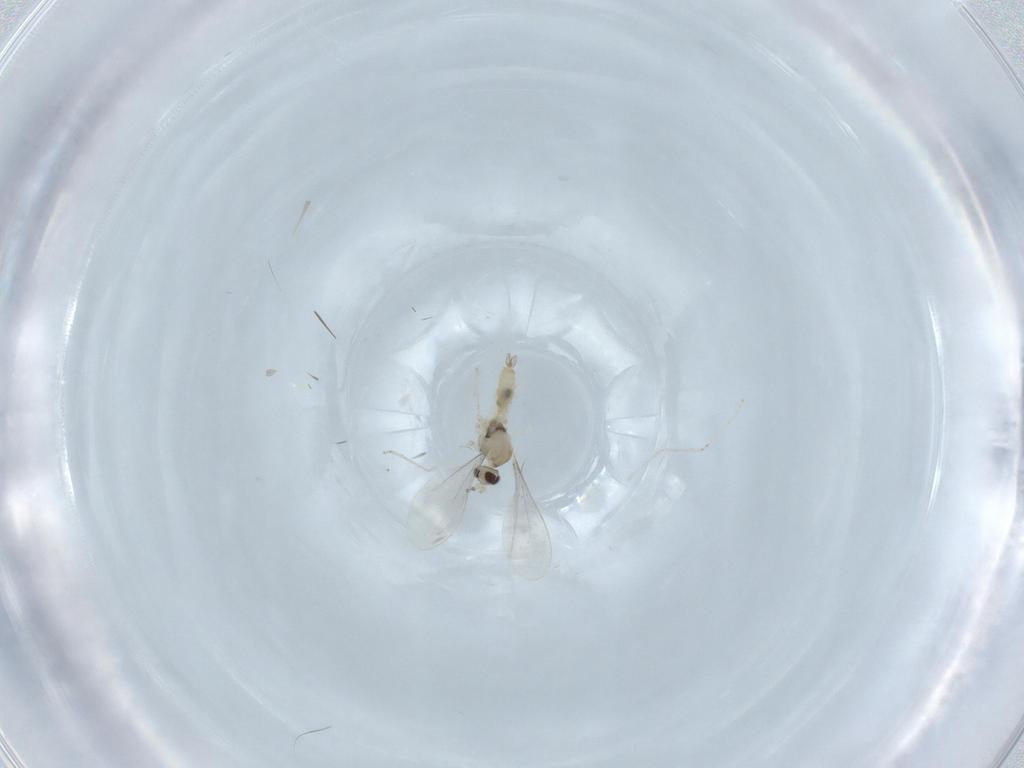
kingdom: Animalia
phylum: Arthropoda
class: Insecta
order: Diptera
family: Cecidomyiidae
